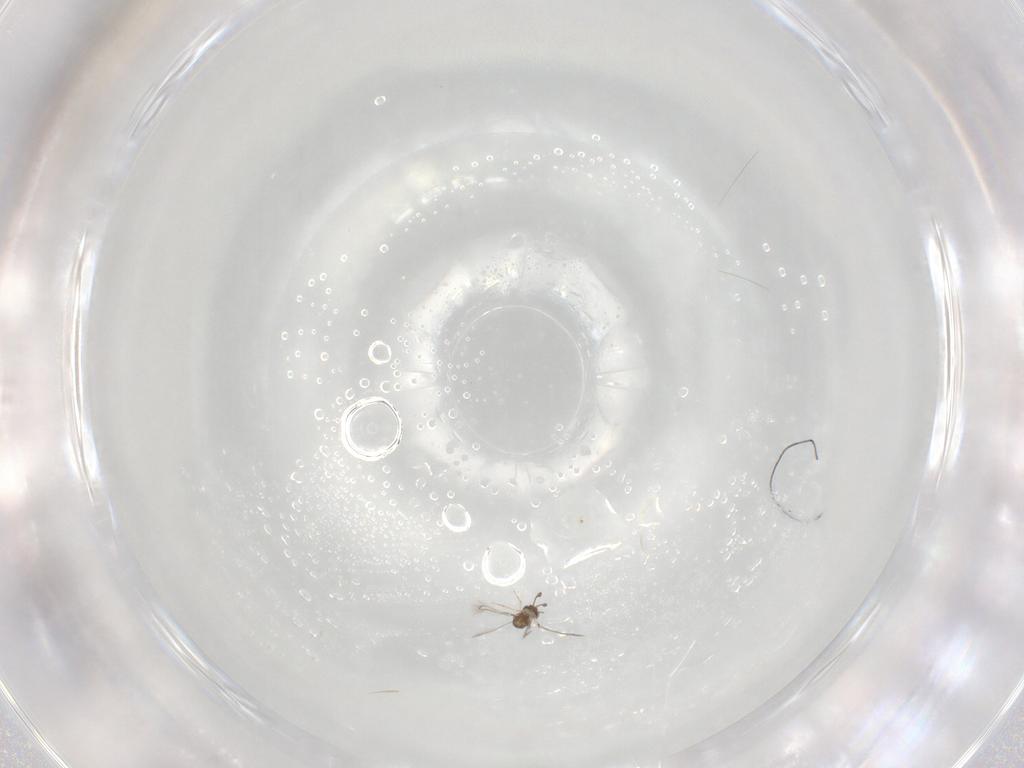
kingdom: Animalia
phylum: Arthropoda
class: Insecta
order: Hymenoptera
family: Mymaridae
